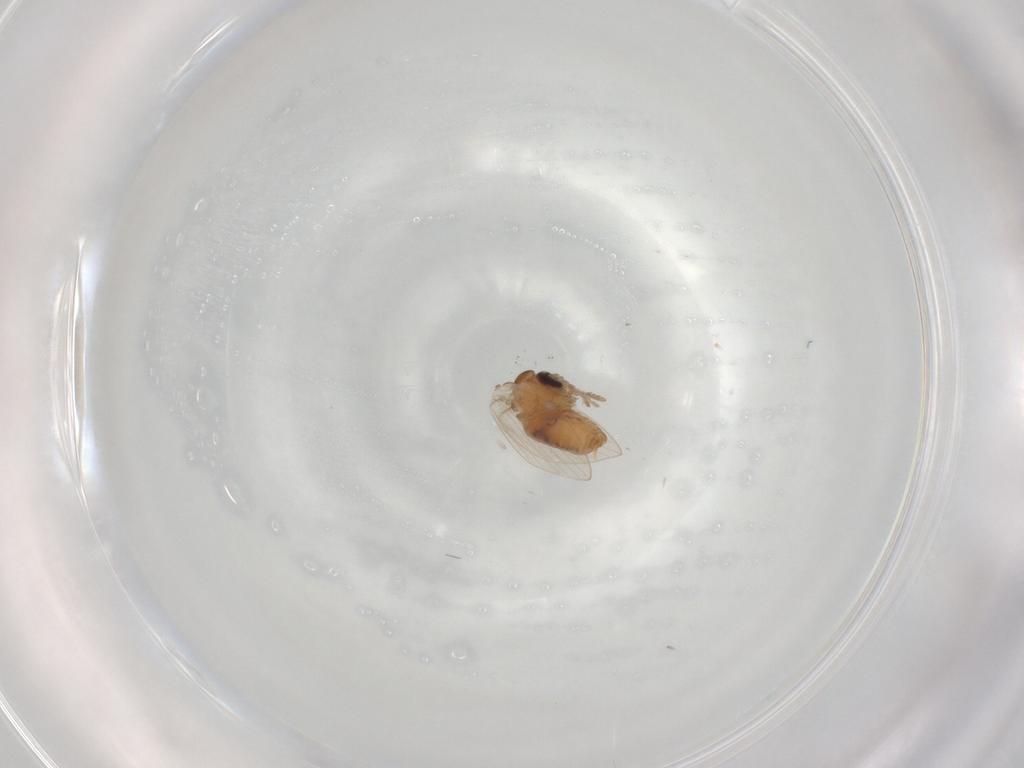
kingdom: Animalia
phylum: Arthropoda
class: Insecta
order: Diptera
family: Psychodidae
